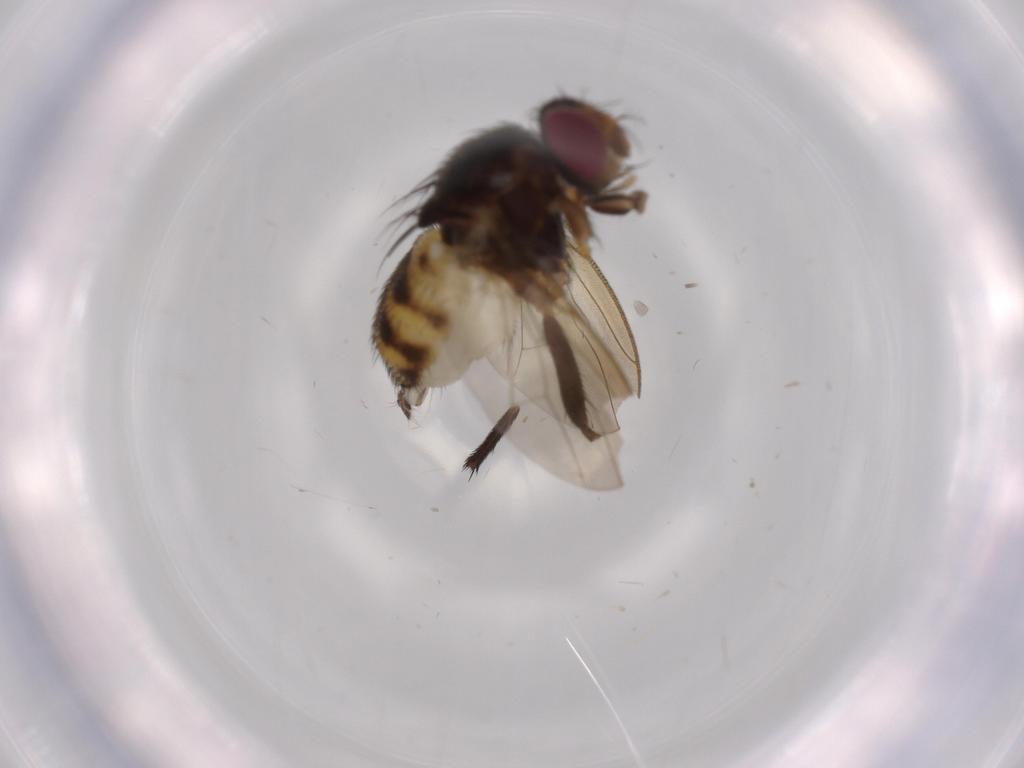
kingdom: Animalia
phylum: Arthropoda
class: Insecta
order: Diptera
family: Anthomyiidae
